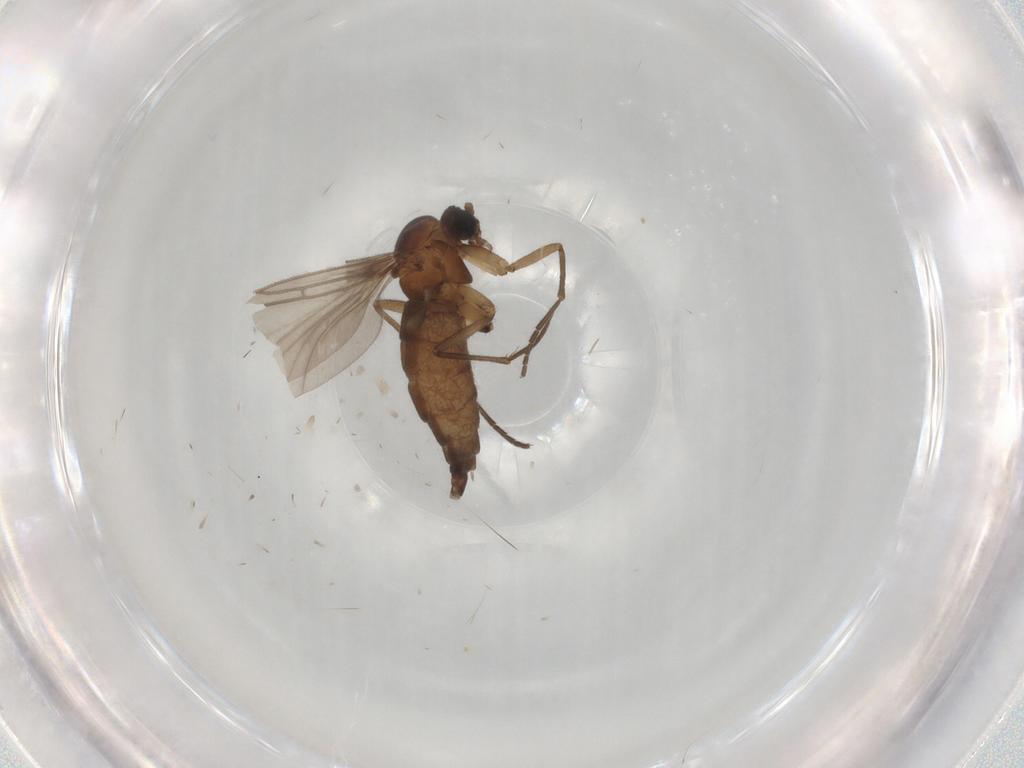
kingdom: Animalia
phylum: Arthropoda
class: Insecta
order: Diptera
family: Sciaridae
